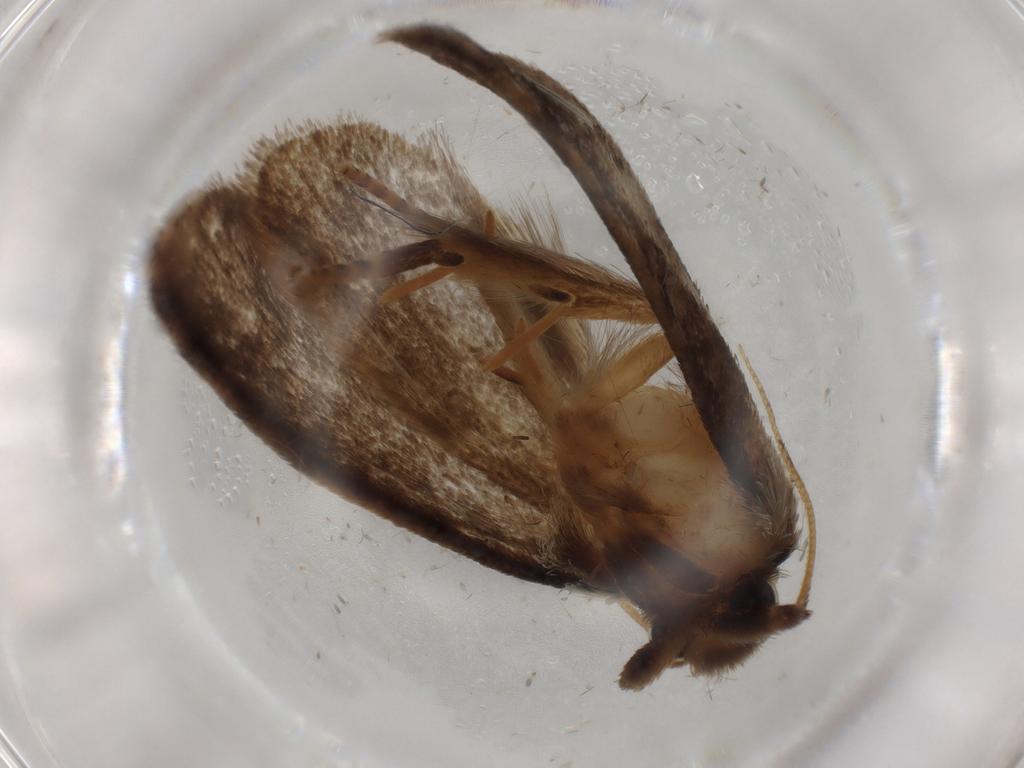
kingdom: Animalia
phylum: Arthropoda
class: Insecta
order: Lepidoptera
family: Tineidae
